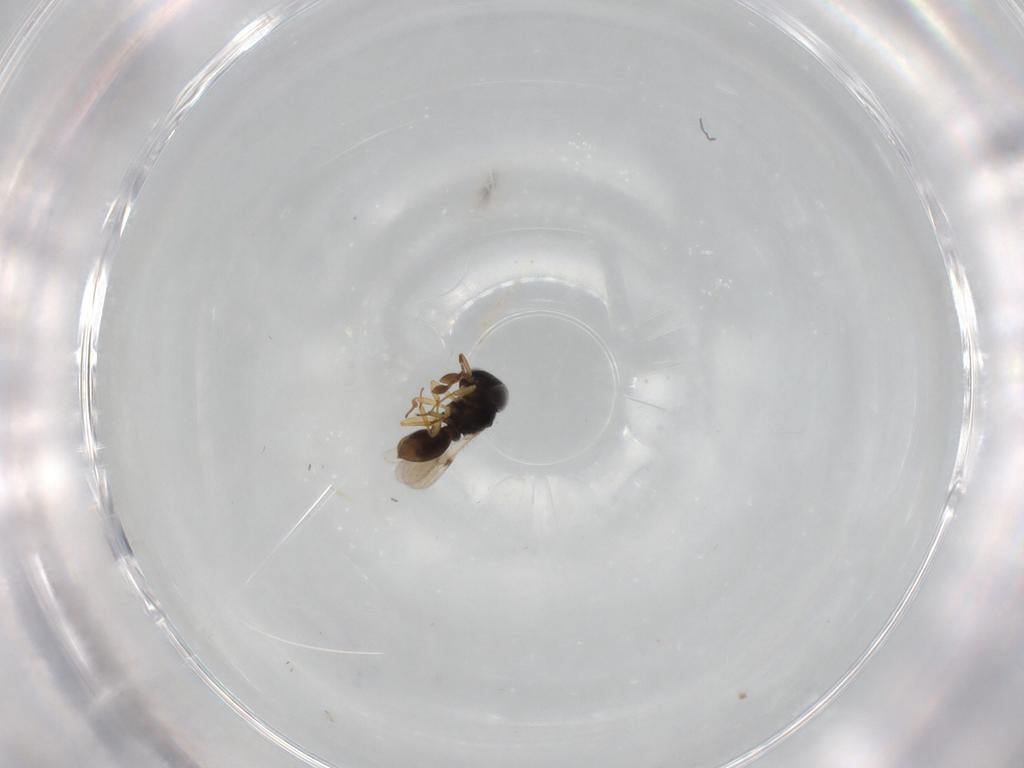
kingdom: Animalia
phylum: Arthropoda
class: Insecta
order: Hymenoptera
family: Scelionidae
